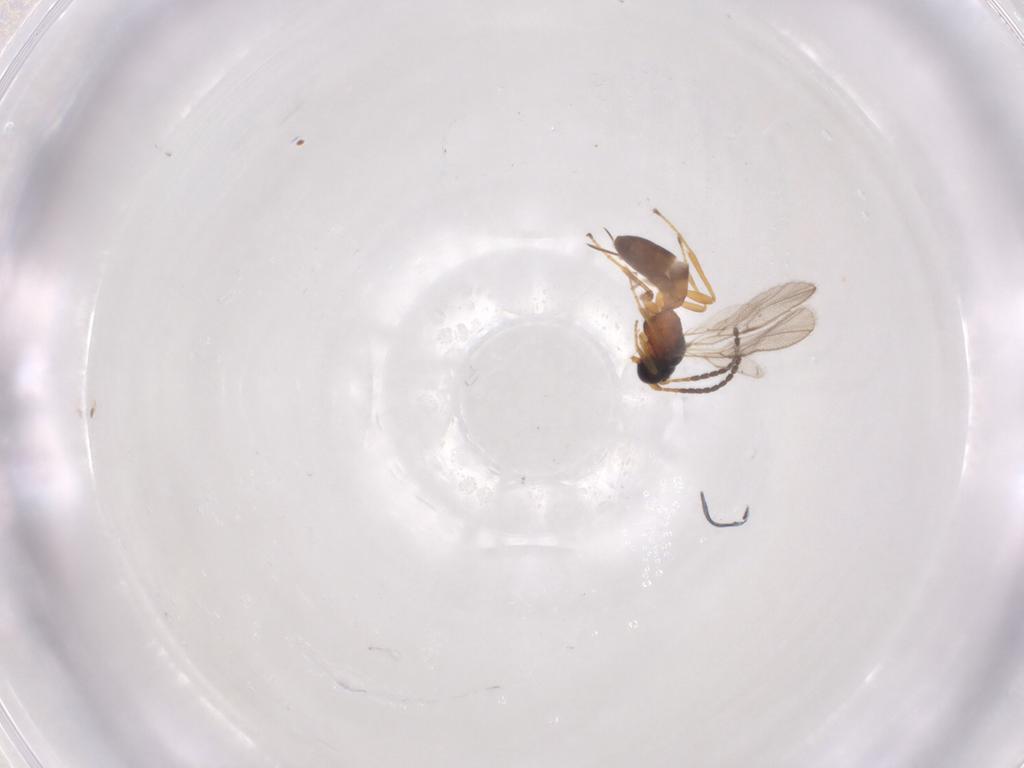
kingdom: Animalia
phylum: Arthropoda
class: Insecta
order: Hymenoptera
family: Braconidae
